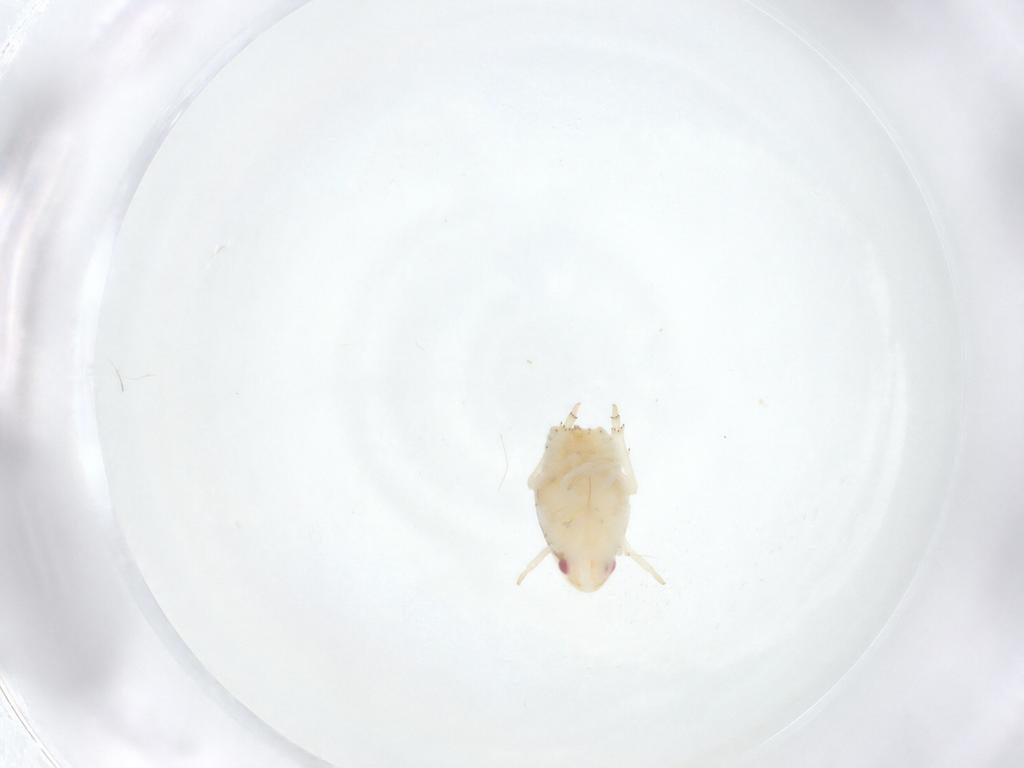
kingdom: Animalia
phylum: Arthropoda
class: Insecta
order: Hemiptera
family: Flatidae
